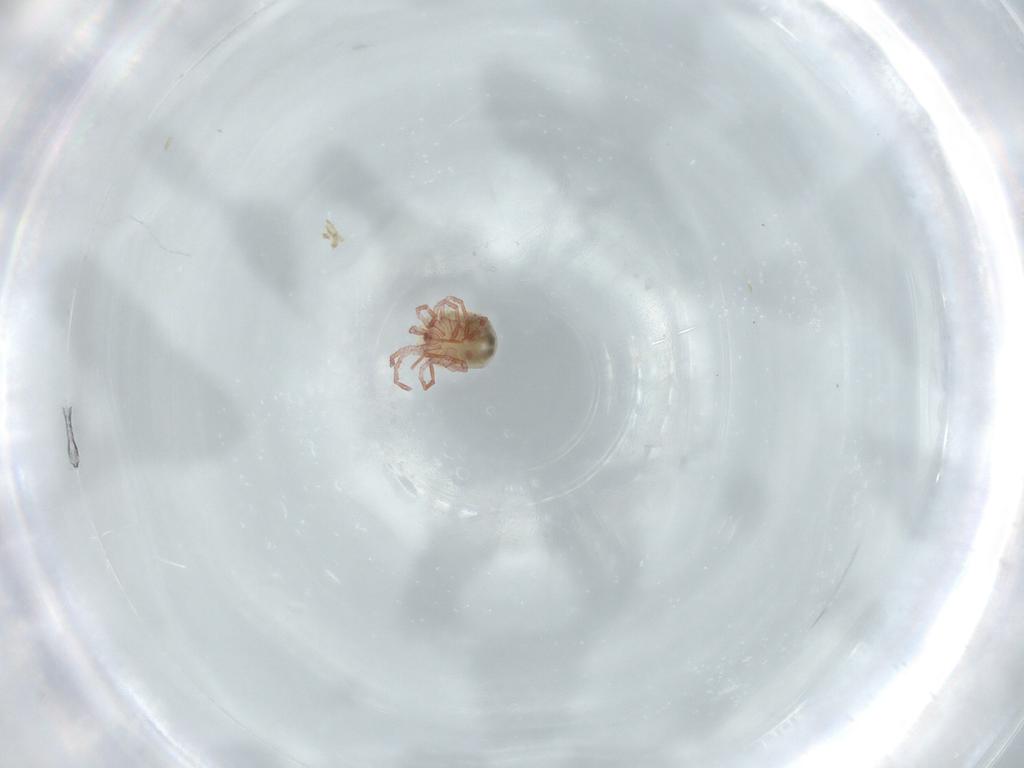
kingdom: Animalia
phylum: Arthropoda
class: Arachnida
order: Trombidiformes
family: Pionidae
